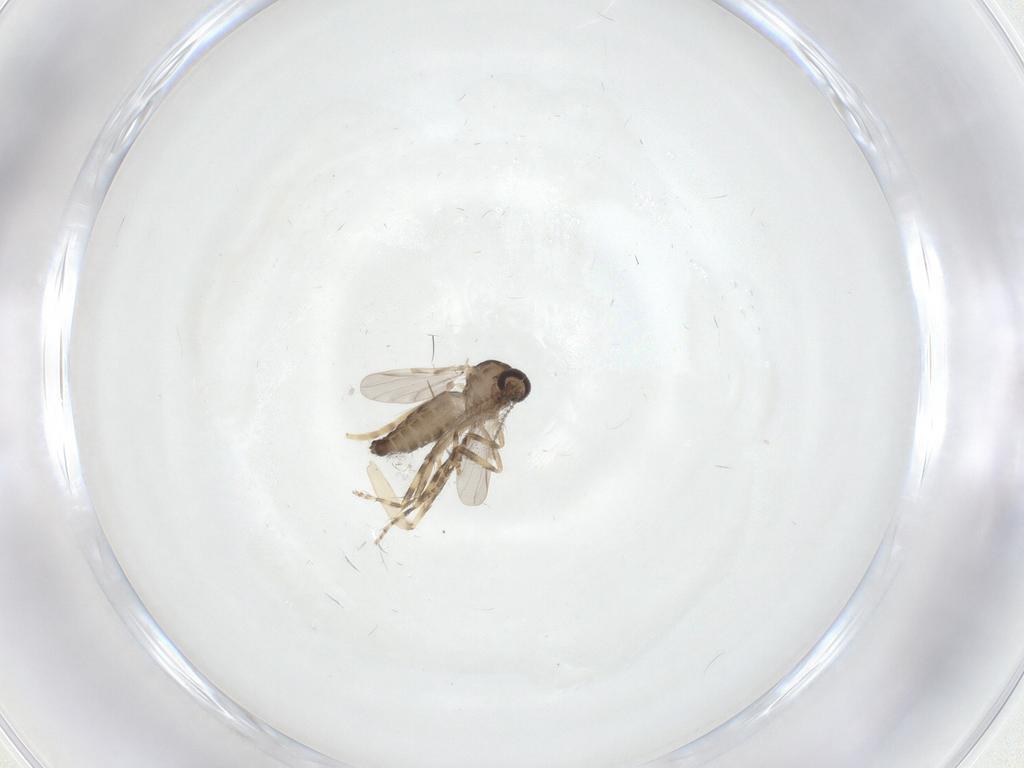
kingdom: Animalia
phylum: Arthropoda
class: Insecta
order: Diptera
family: Ceratopogonidae
